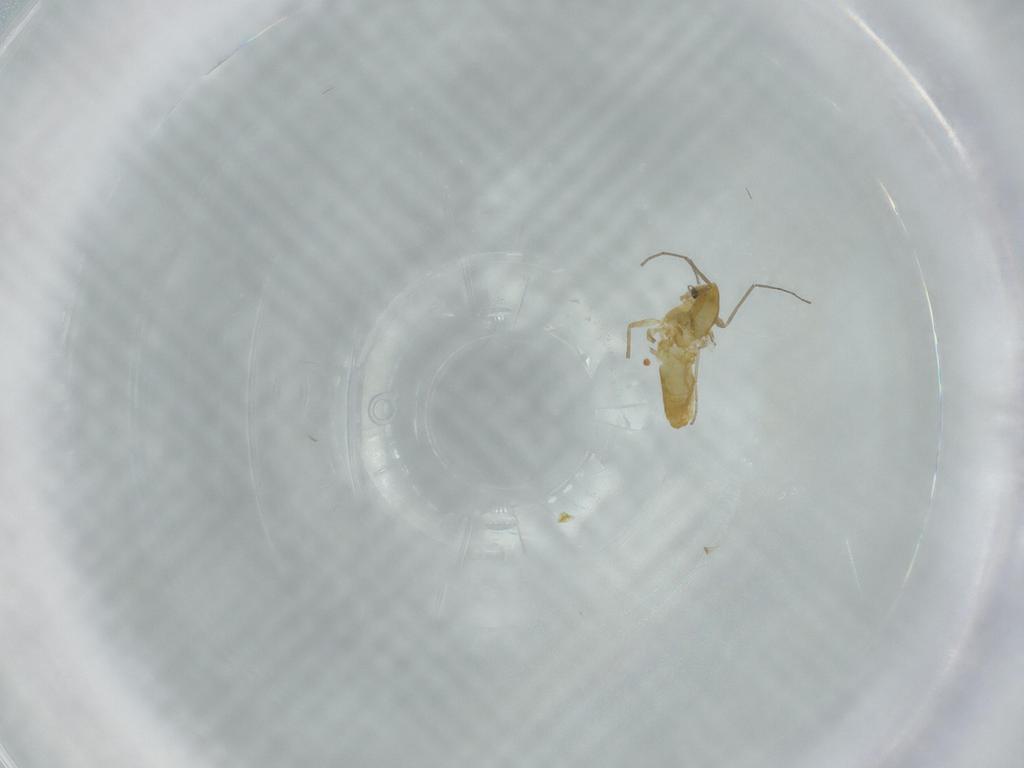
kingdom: Animalia
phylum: Arthropoda
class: Insecta
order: Diptera
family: Chironomidae
